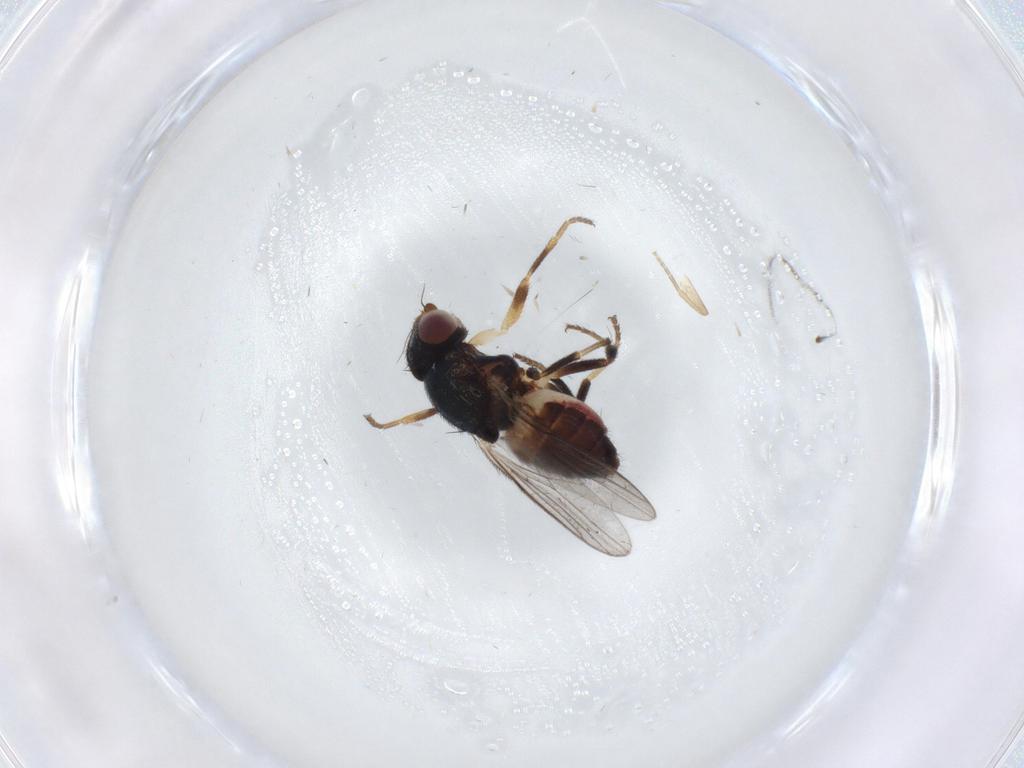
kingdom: Animalia
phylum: Arthropoda
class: Insecta
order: Diptera
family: Chloropidae
